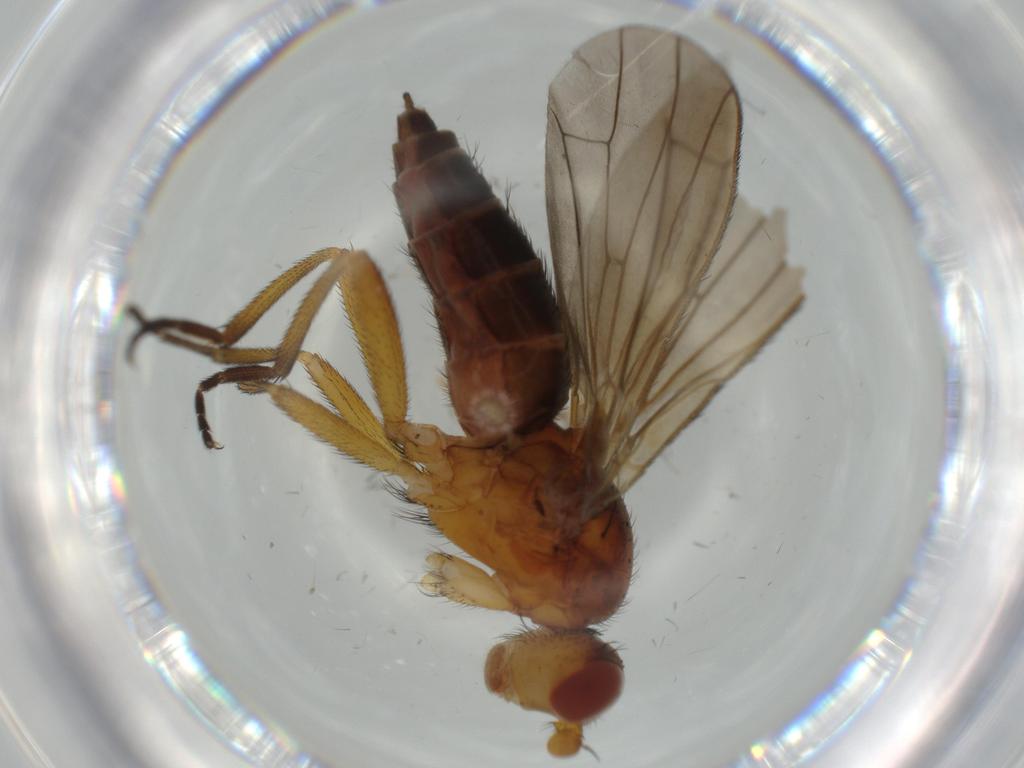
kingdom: Animalia
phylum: Arthropoda
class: Insecta
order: Diptera
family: Heleomyzidae
